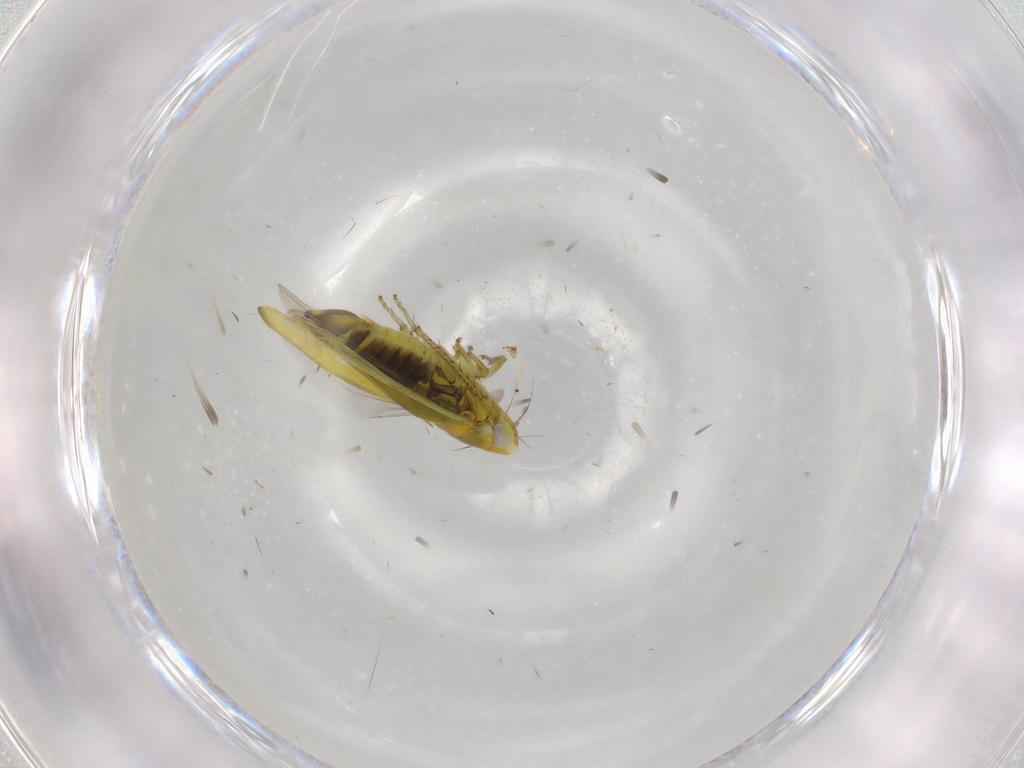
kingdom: Animalia
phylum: Arthropoda
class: Insecta
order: Hemiptera
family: Cicadellidae
